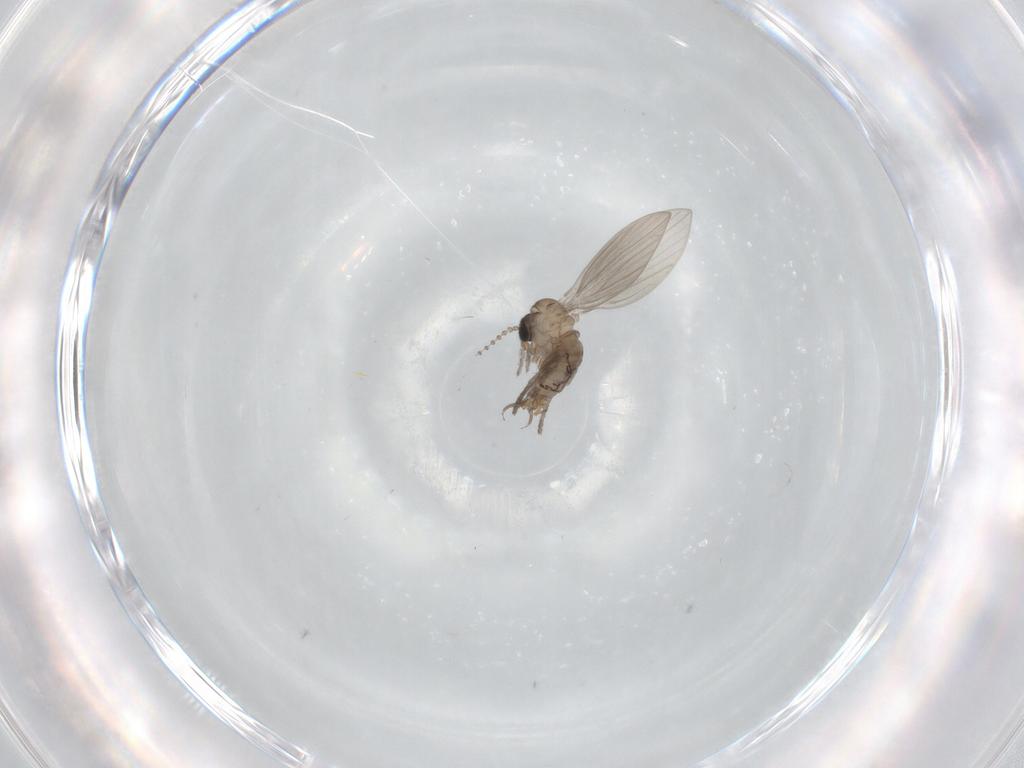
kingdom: Animalia
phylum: Arthropoda
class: Insecta
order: Diptera
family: Psychodidae
